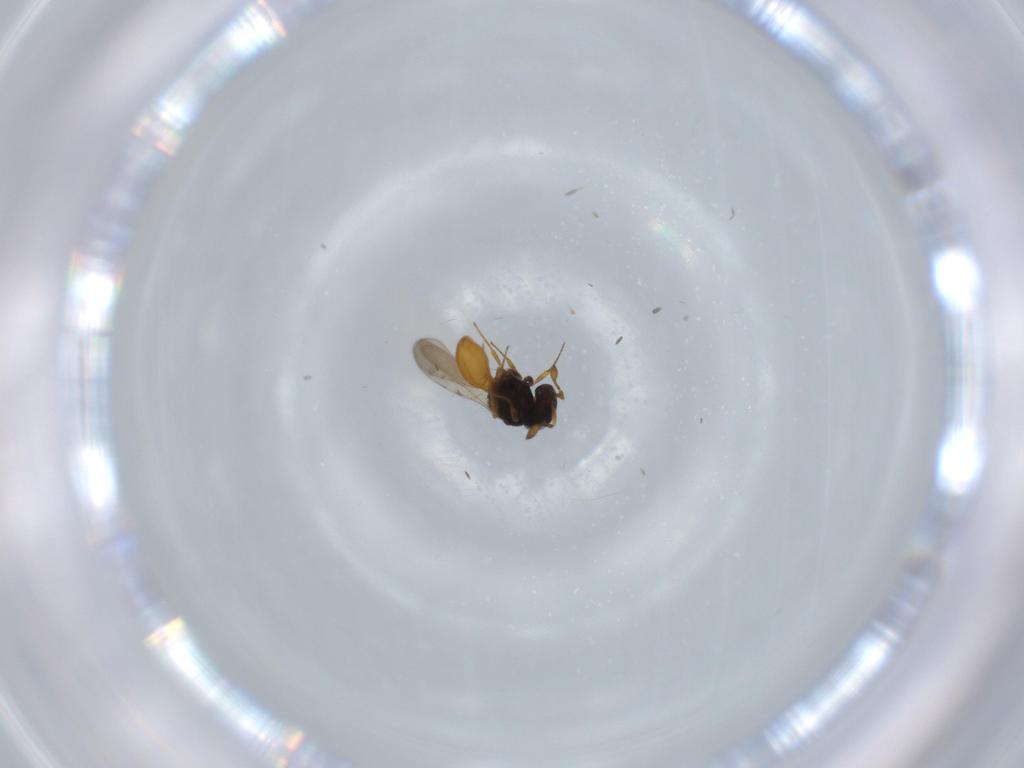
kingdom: Animalia
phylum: Arthropoda
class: Insecta
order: Hymenoptera
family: Scelionidae
